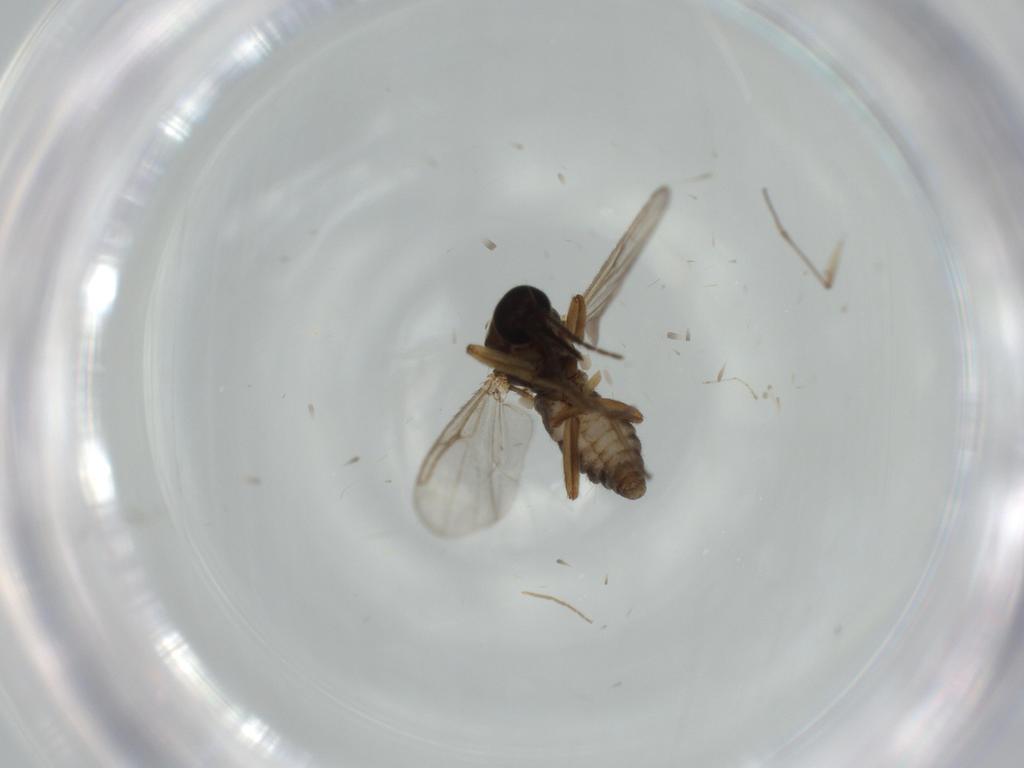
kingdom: Animalia
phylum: Arthropoda
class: Insecta
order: Diptera
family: Ceratopogonidae
